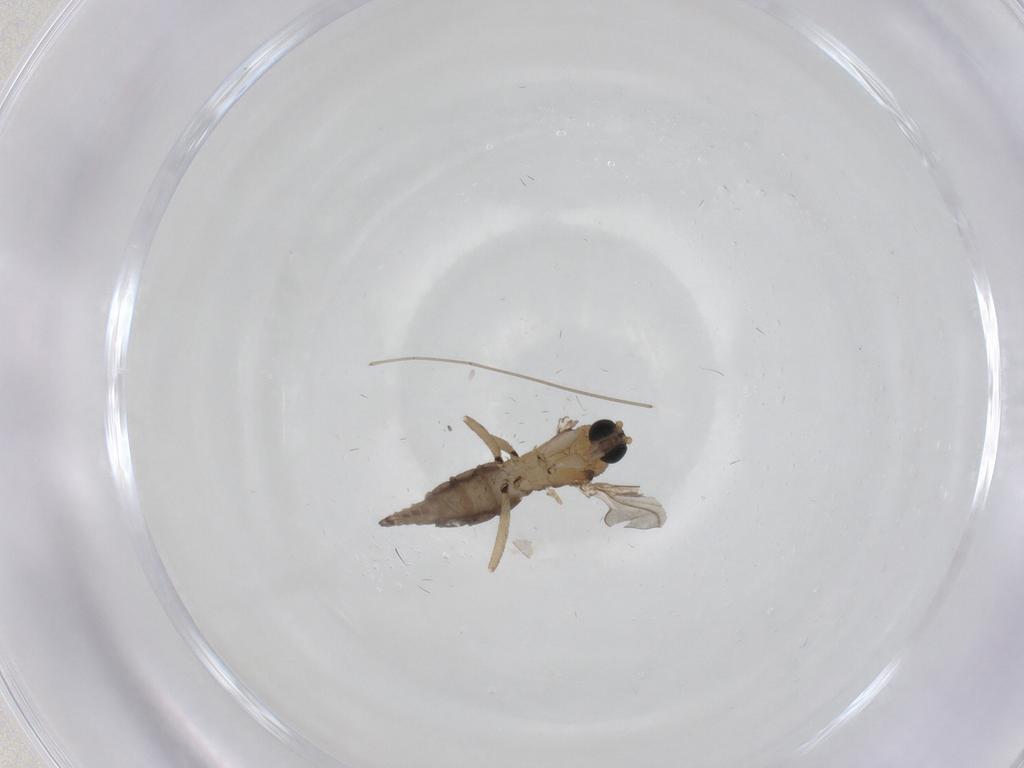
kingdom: Animalia
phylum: Arthropoda
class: Insecta
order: Diptera
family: Sciaridae
